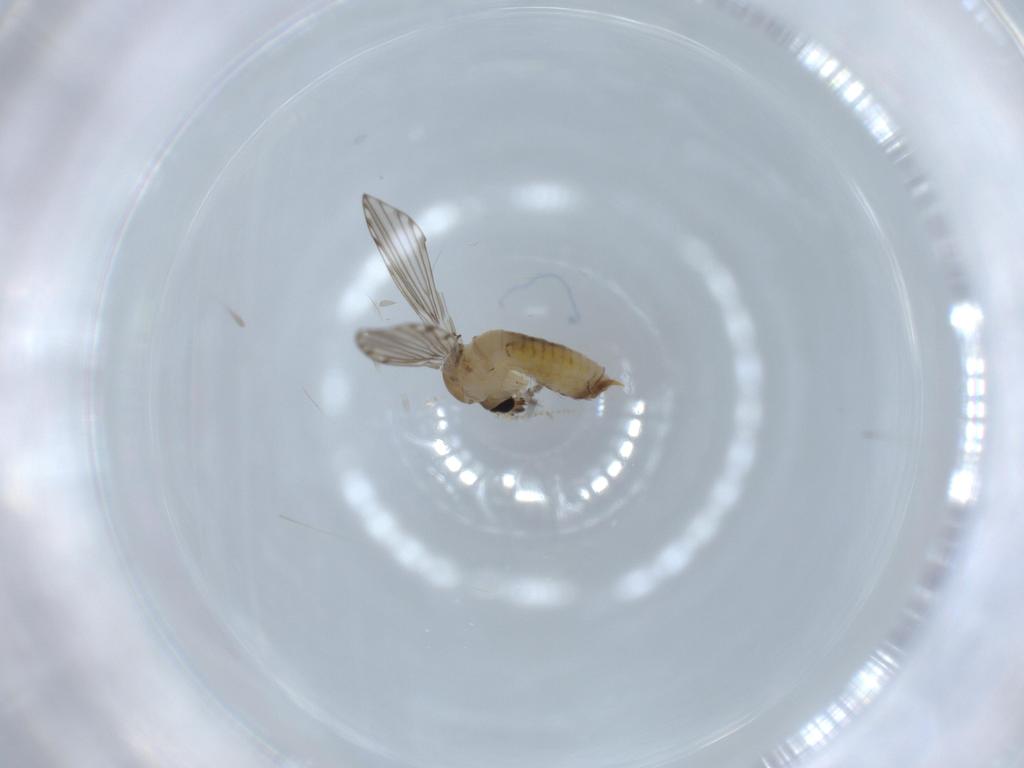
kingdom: Animalia
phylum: Arthropoda
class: Insecta
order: Diptera
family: Psychodidae
